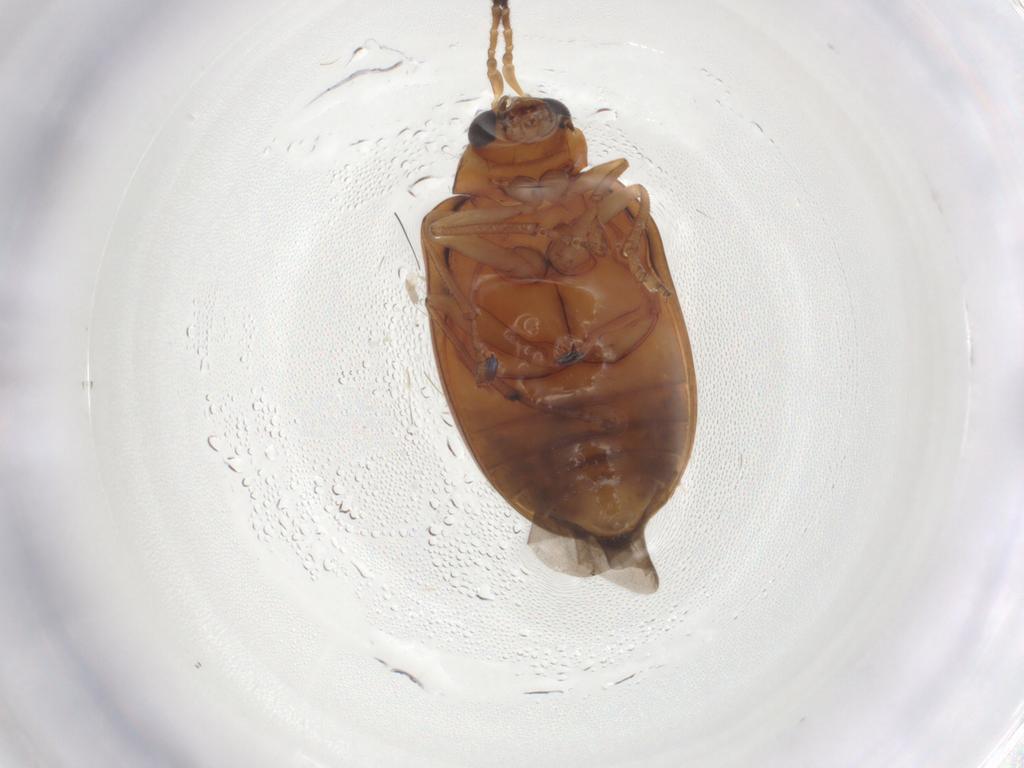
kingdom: Animalia
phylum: Arthropoda
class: Insecta
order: Coleoptera
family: Chrysomelidae
